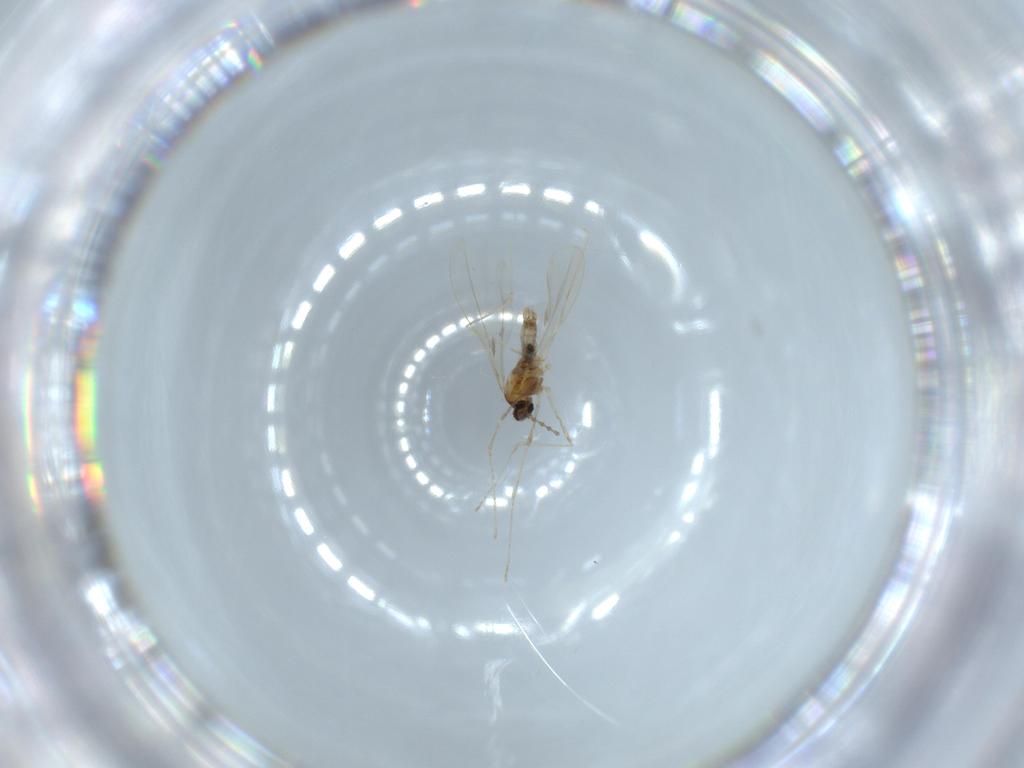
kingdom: Animalia
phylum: Arthropoda
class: Insecta
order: Diptera
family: Cecidomyiidae
